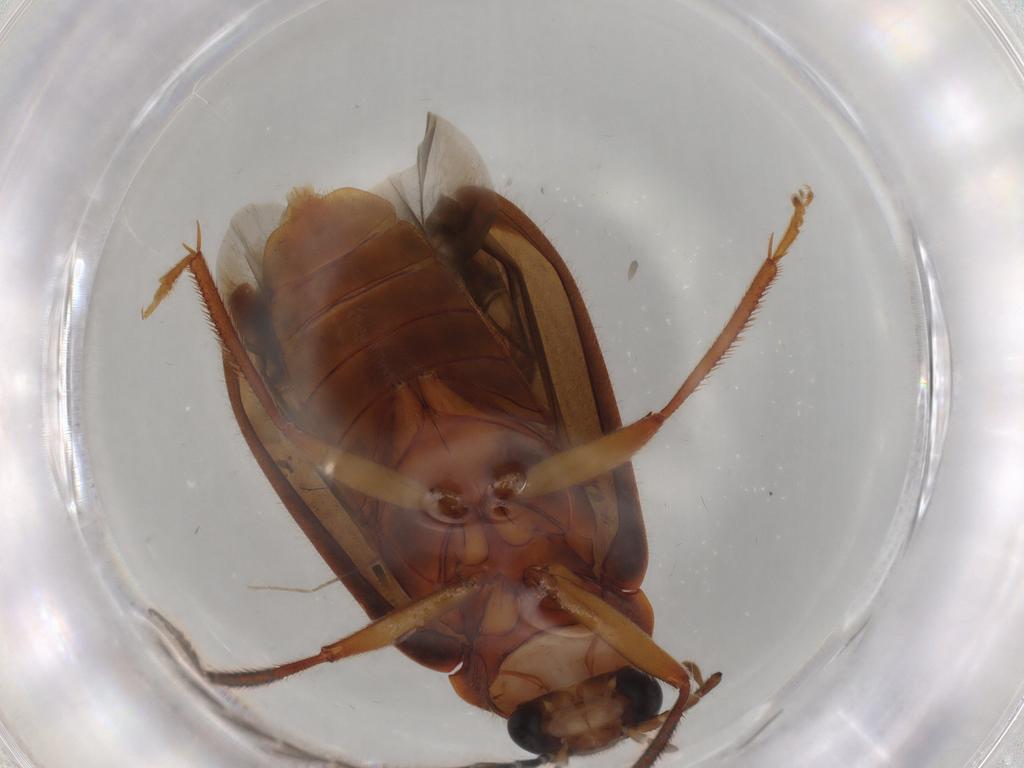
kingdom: Animalia
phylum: Arthropoda
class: Insecta
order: Coleoptera
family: Ptilodactylidae
